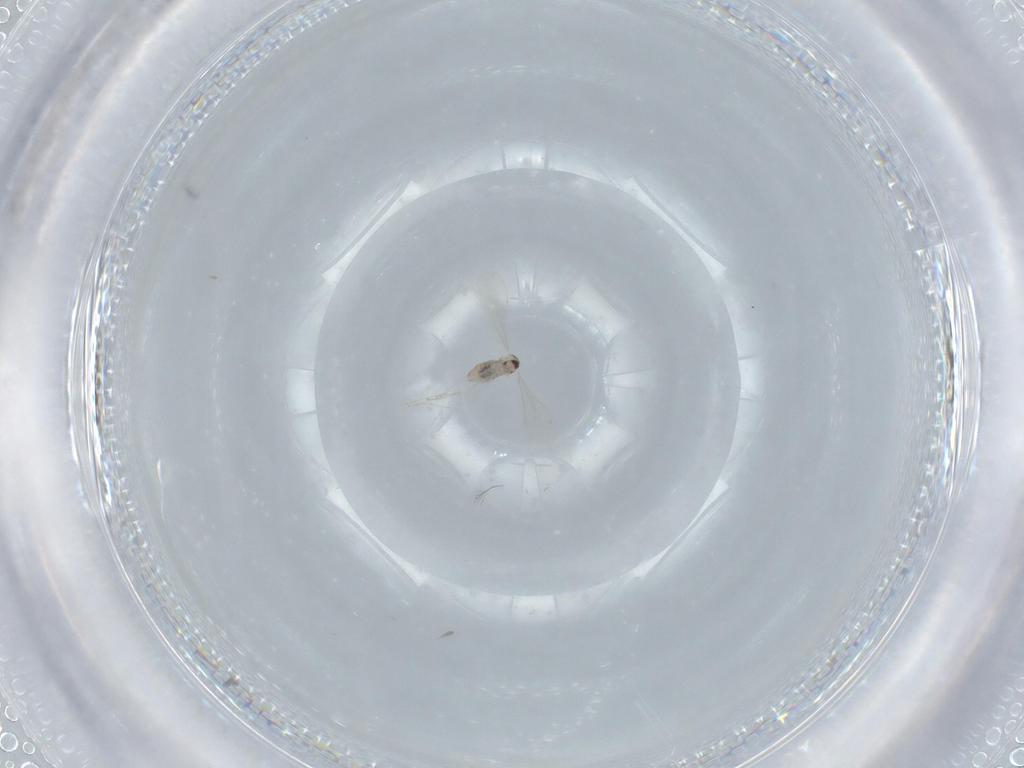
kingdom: Animalia
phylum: Arthropoda
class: Insecta
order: Diptera
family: Cecidomyiidae
